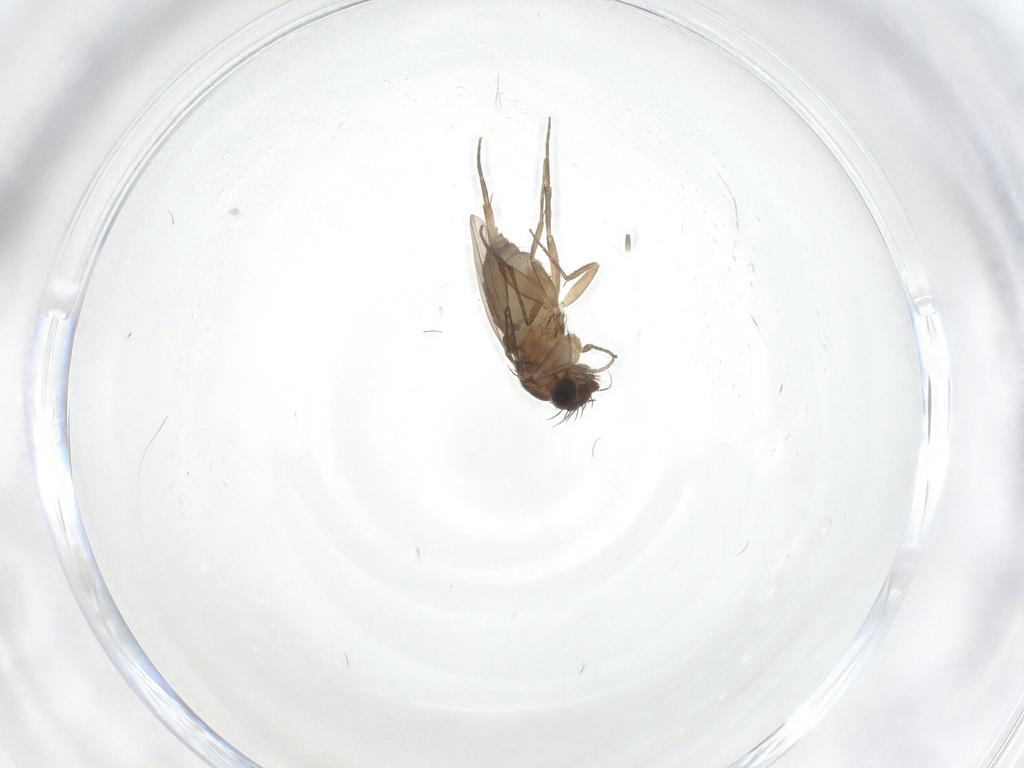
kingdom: Animalia
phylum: Arthropoda
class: Insecta
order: Diptera
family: Phoridae
